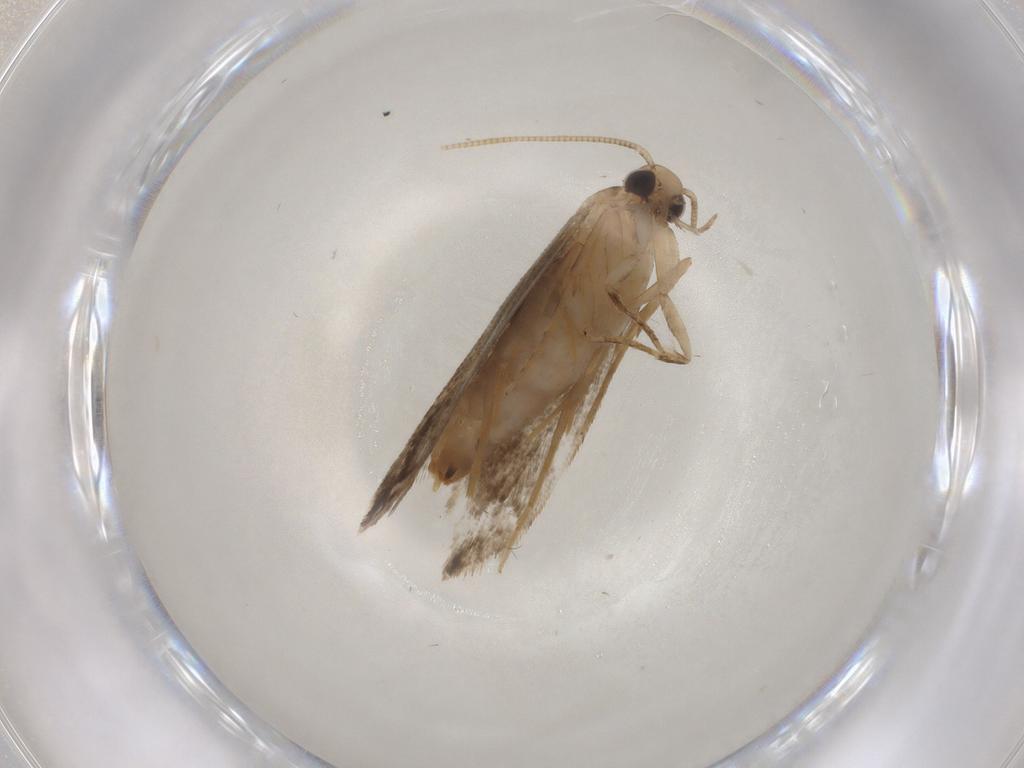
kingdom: Animalia
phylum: Arthropoda
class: Insecta
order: Lepidoptera
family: Tineidae
